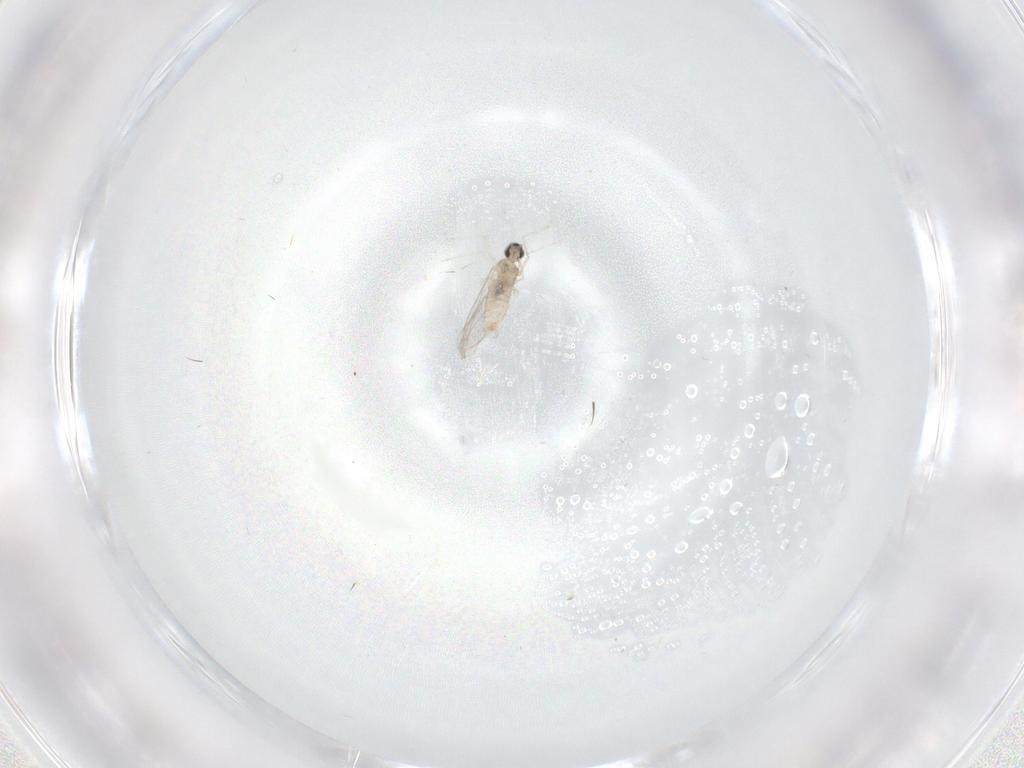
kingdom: Animalia
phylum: Arthropoda
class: Insecta
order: Diptera
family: Chironomidae
